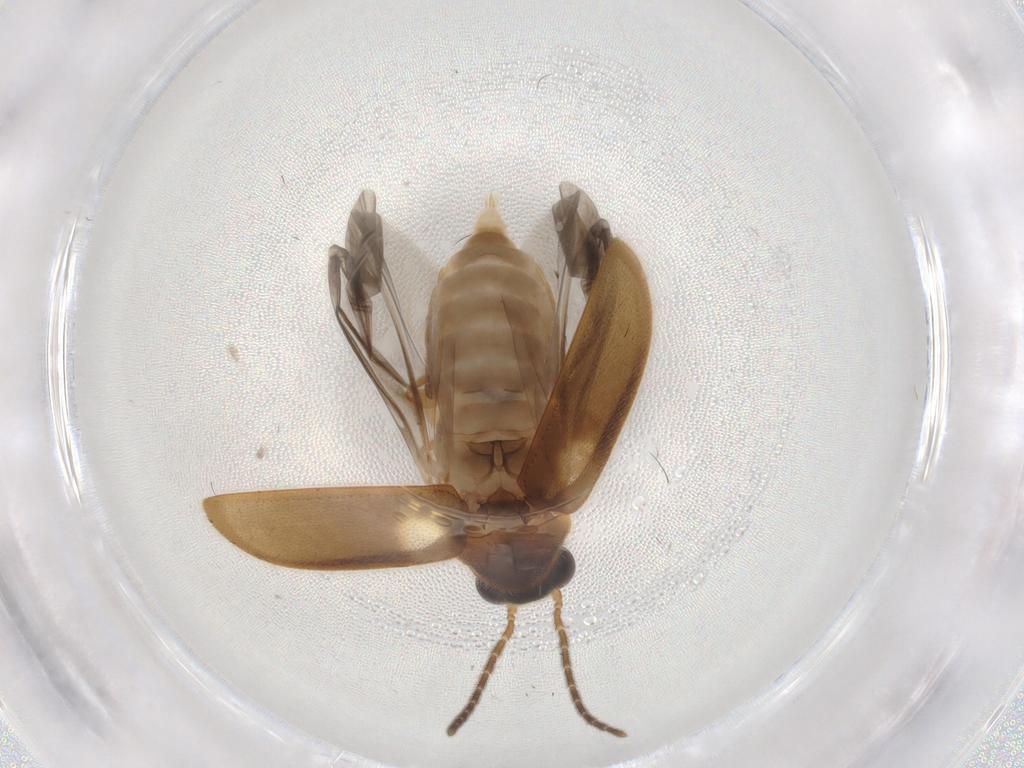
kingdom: Animalia
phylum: Arthropoda
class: Insecta
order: Coleoptera
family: Ptilodactylidae
